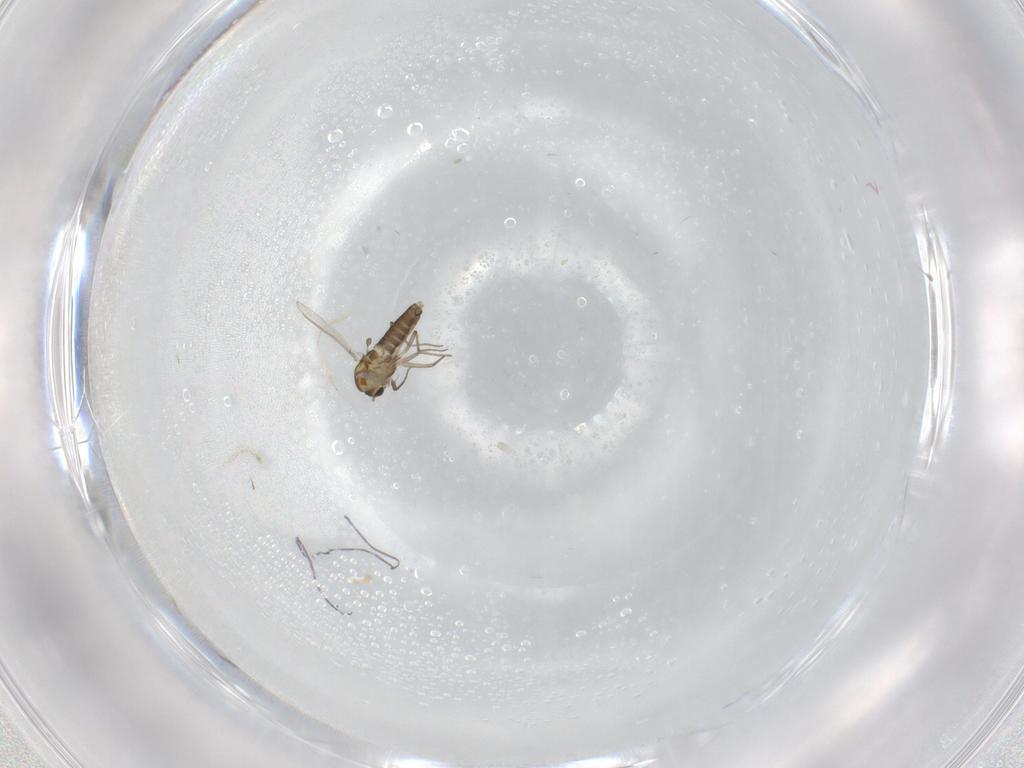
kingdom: Animalia
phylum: Arthropoda
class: Insecta
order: Diptera
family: Chironomidae
